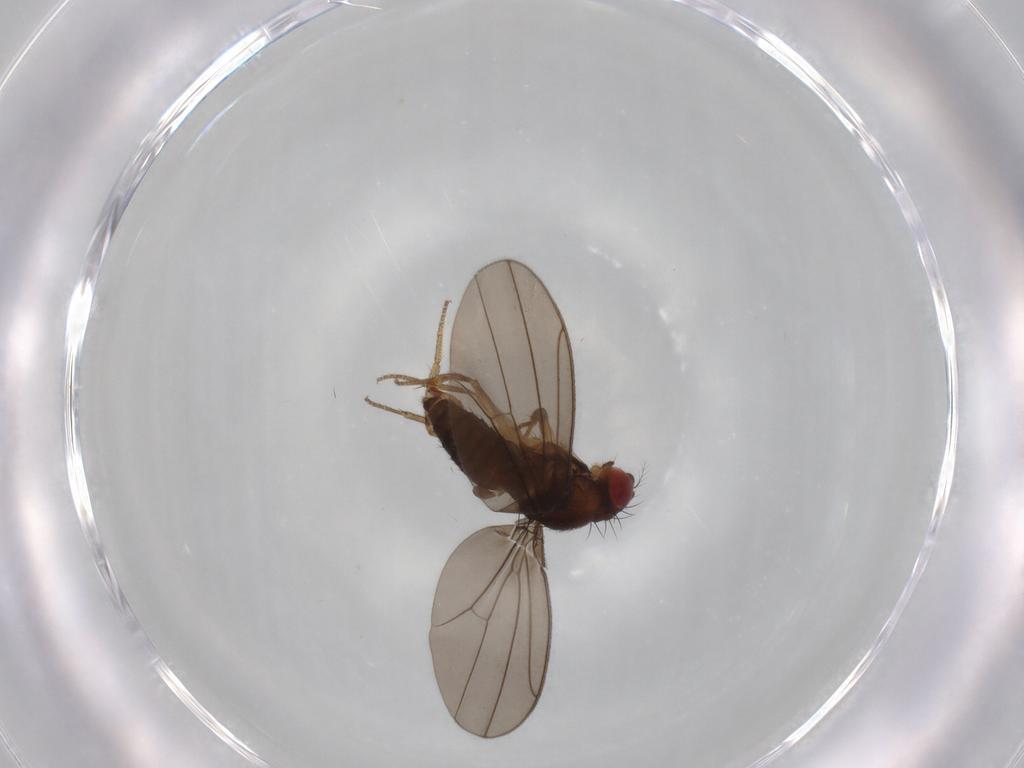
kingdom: Animalia
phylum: Arthropoda
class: Insecta
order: Diptera
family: Drosophilidae
